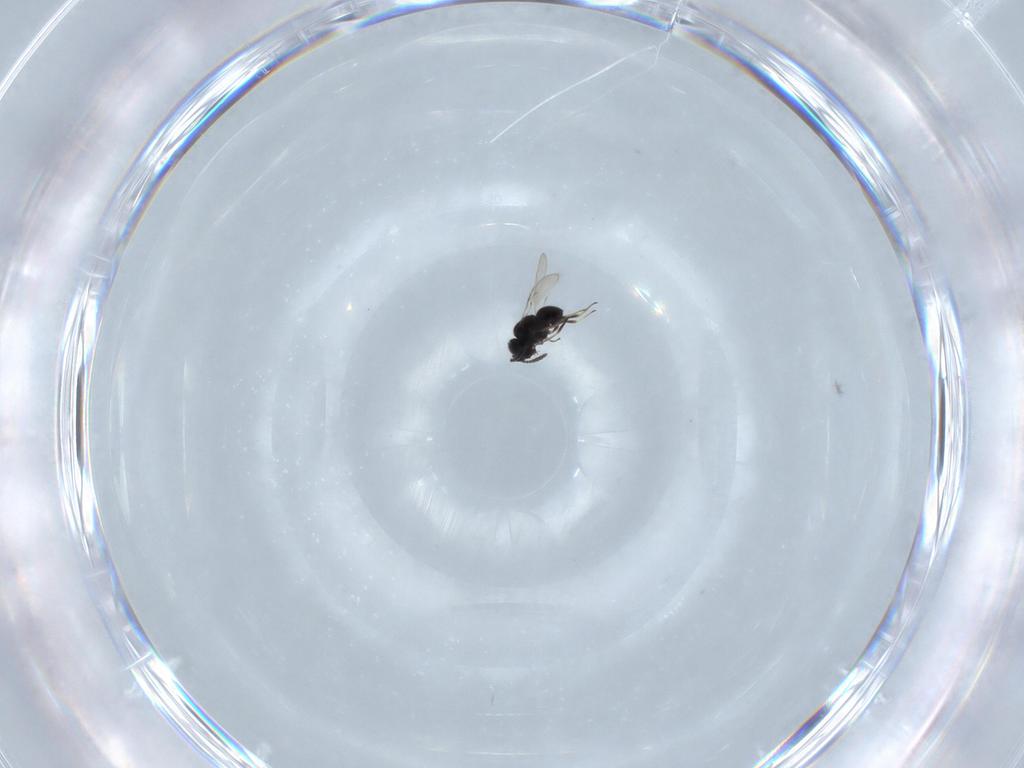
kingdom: Animalia
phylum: Arthropoda
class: Insecta
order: Hymenoptera
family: Scelionidae
